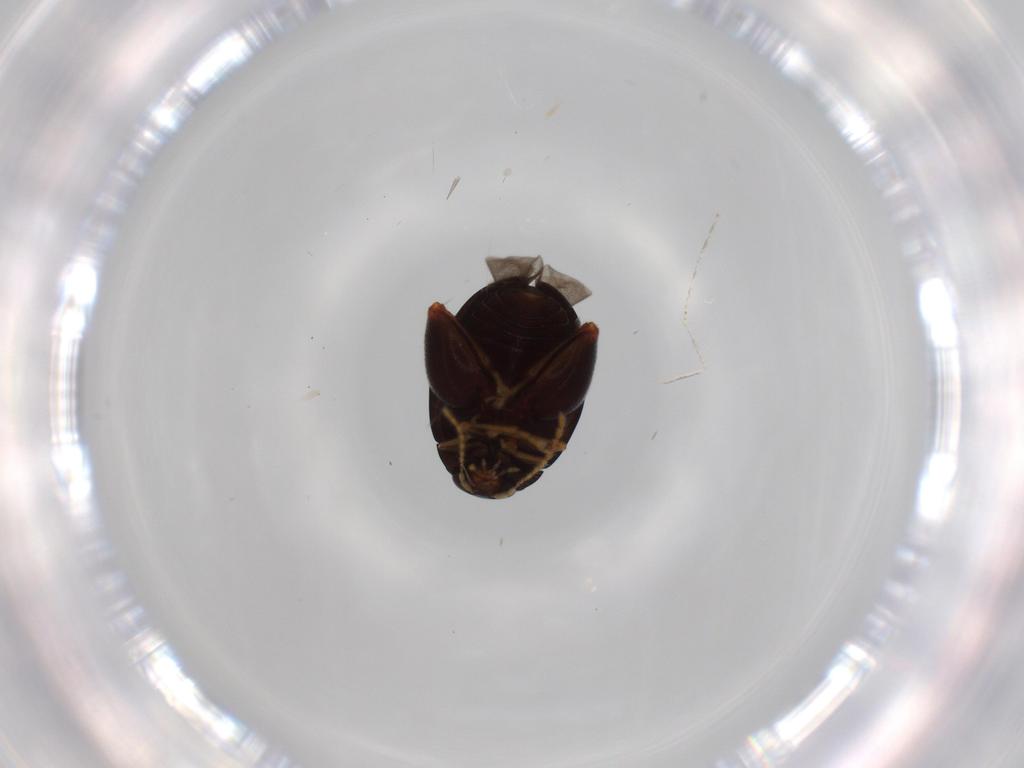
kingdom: Animalia
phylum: Arthropoda
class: Insecta
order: Coleoptera
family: Chrysomelidae
